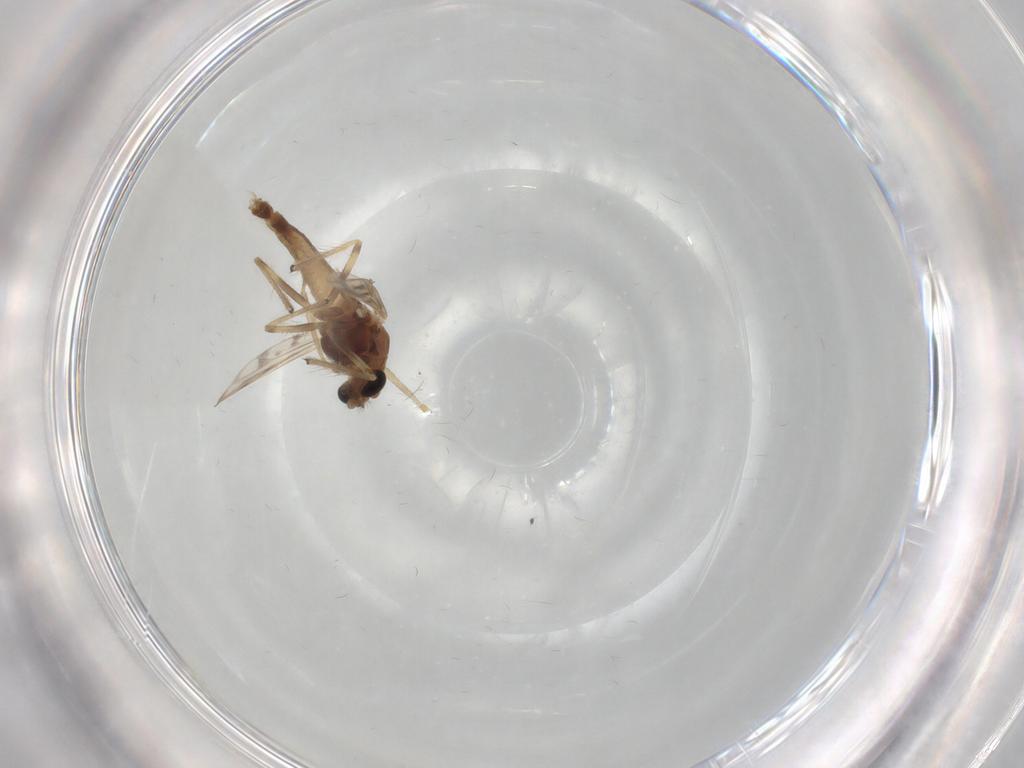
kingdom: Animalia
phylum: Arthropoda
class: Insecta
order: Diptera
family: Chironomidae
